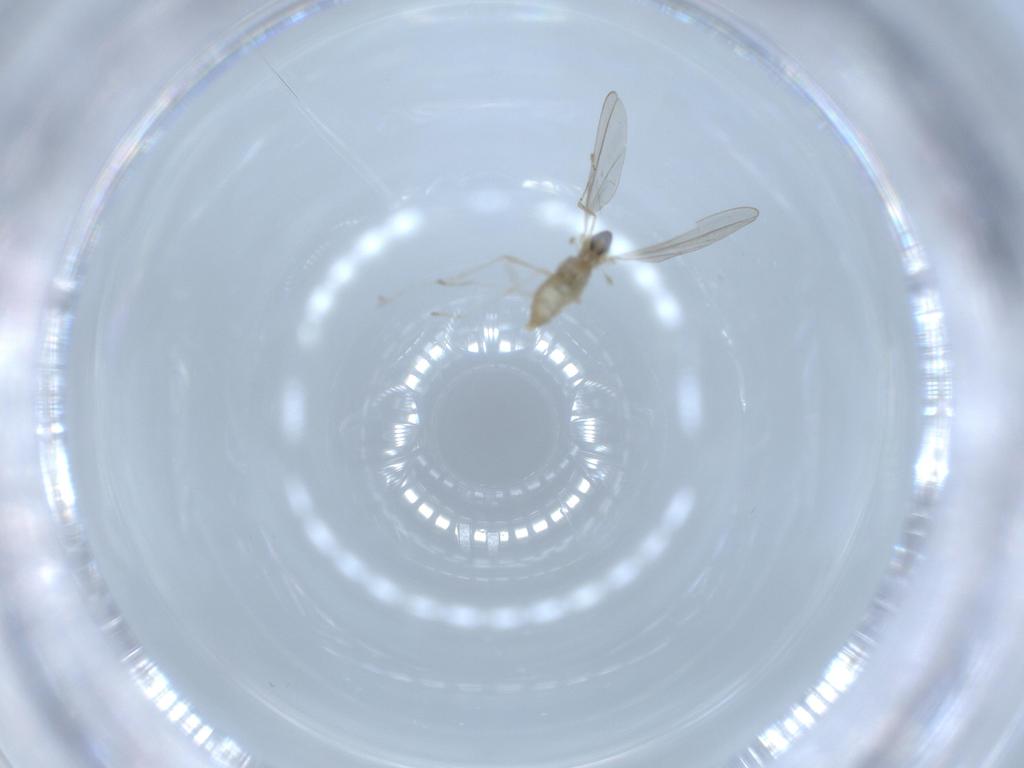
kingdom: Animalia
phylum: Arthropoda
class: Insecta
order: Diptera
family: Cecidomyiidae
